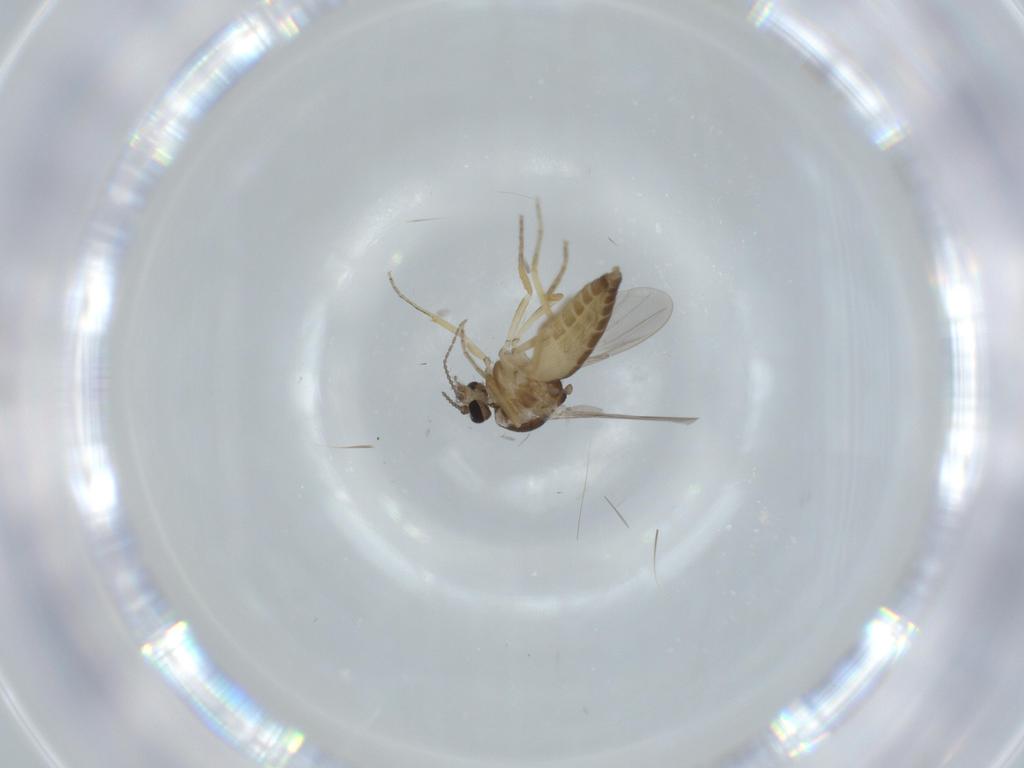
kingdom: Animalia
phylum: Arthropoda
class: Insecta
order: Diptera
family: Ceratopogonidae
